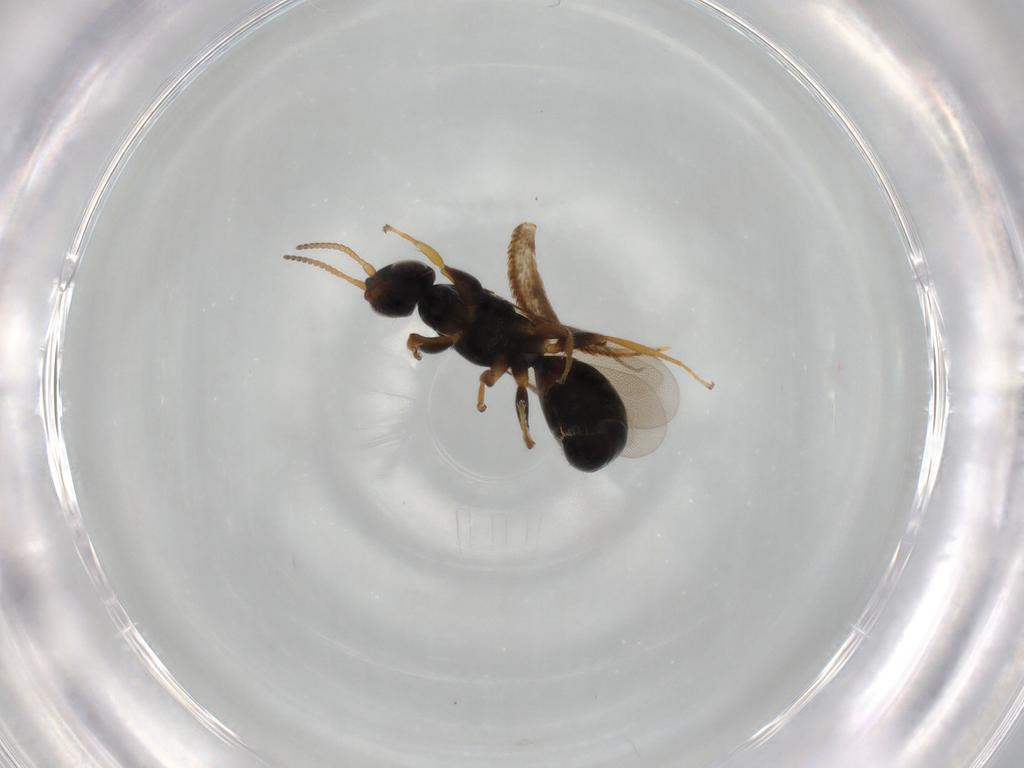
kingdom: Animalia
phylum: Arthropoda
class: Insecta
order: Hymenoptera
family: Bethylidae
